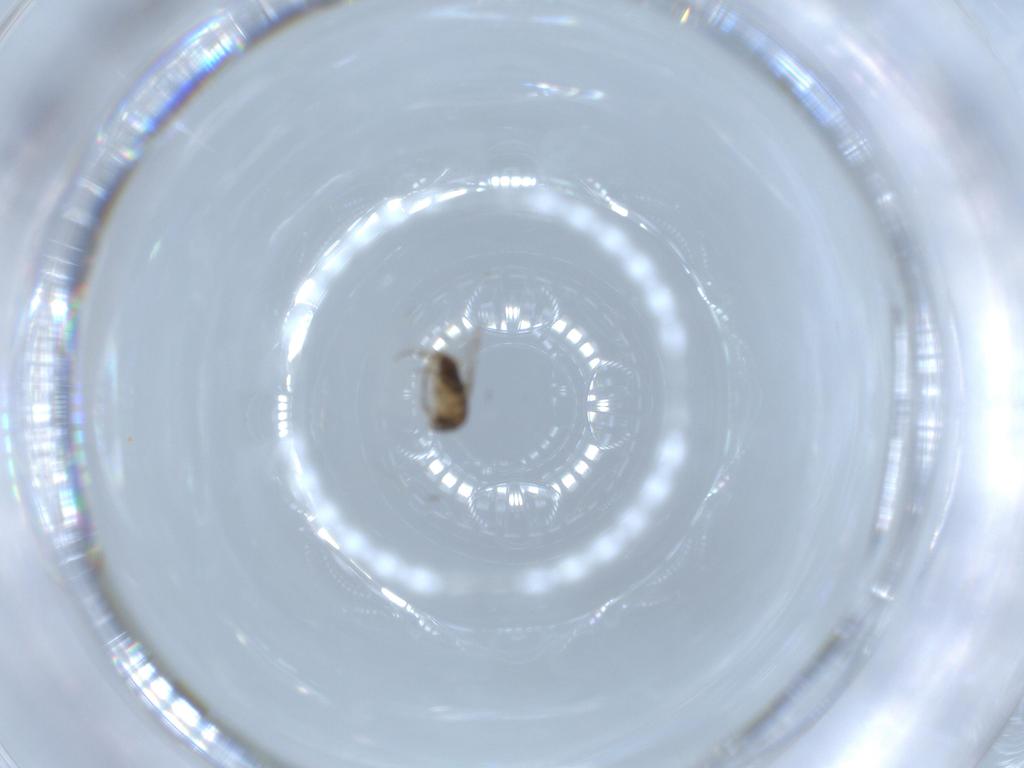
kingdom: Animalia
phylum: Arthropoda
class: Insecta
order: Diptera
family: Phoridae
